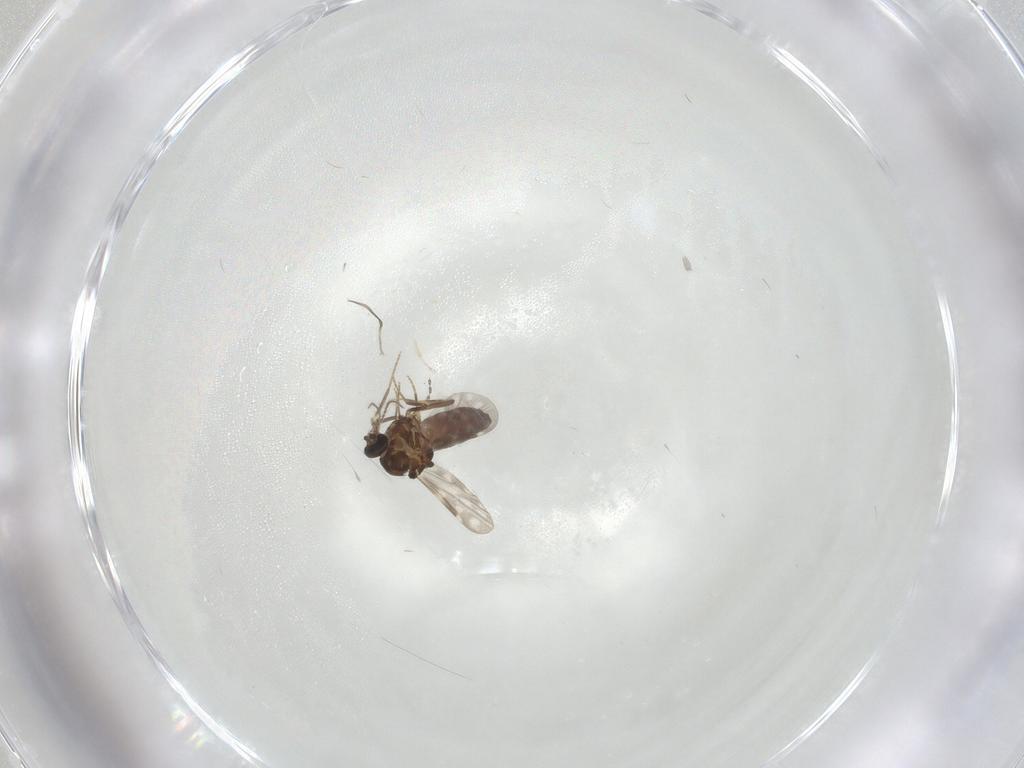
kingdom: Animalia
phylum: Arthropoda
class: Insecta
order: Diptera
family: Ceratopogonidae
